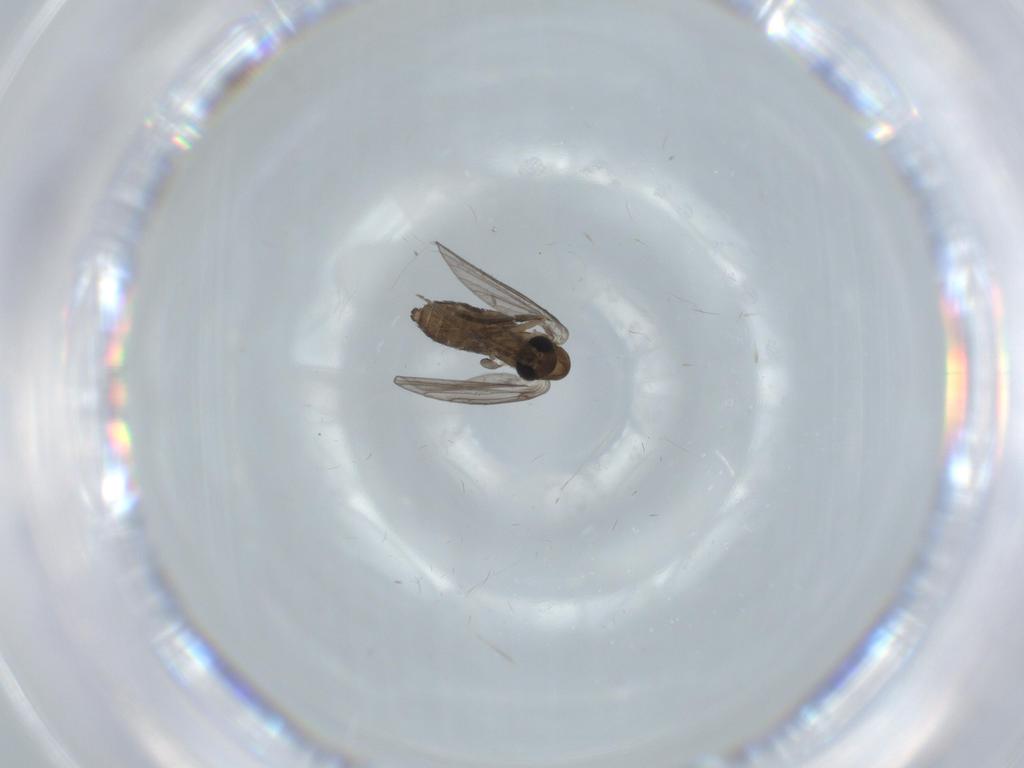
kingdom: Animalia
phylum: Arthropoda
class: Insecta
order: Diptera
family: Psychodidae
